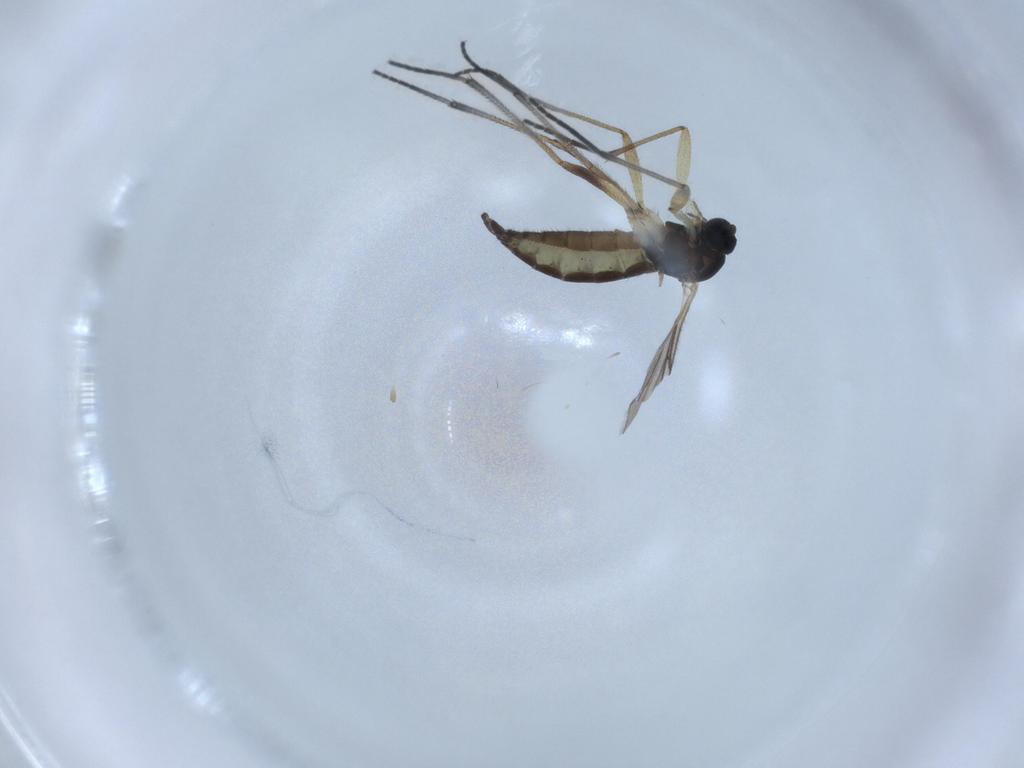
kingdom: Animalia
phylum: Arthropoda
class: Insecta
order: Diptera
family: Sciaridae
